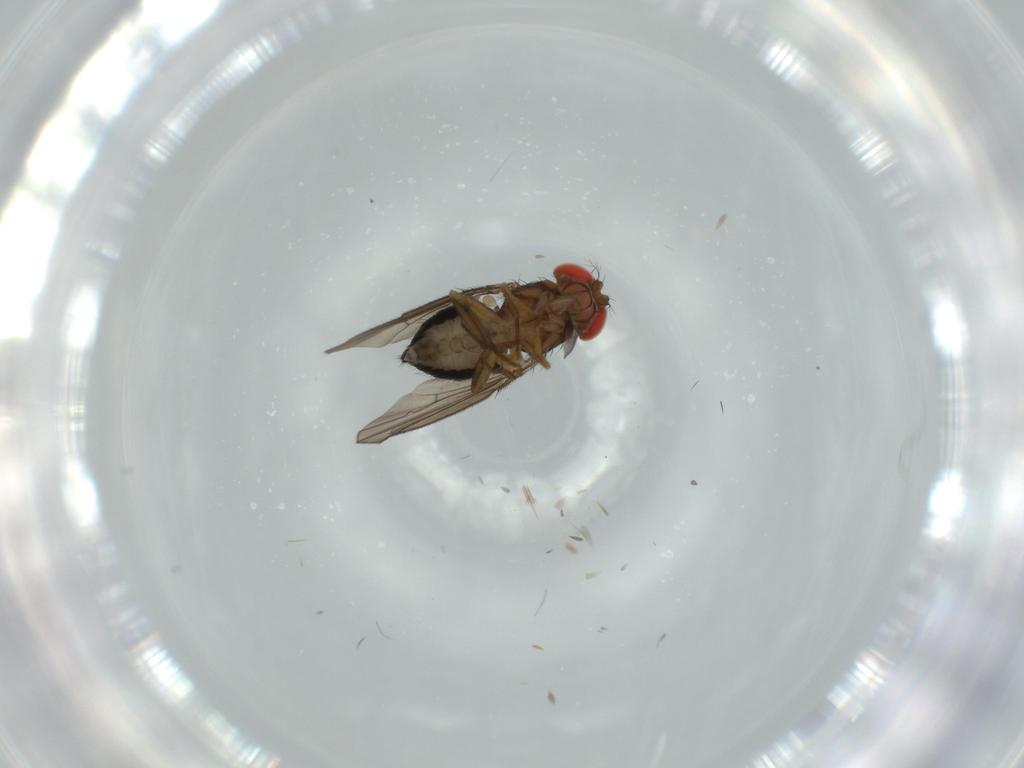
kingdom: Animalia
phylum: Arthropoda
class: Insecta
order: Diptera
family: Drosophilidae
